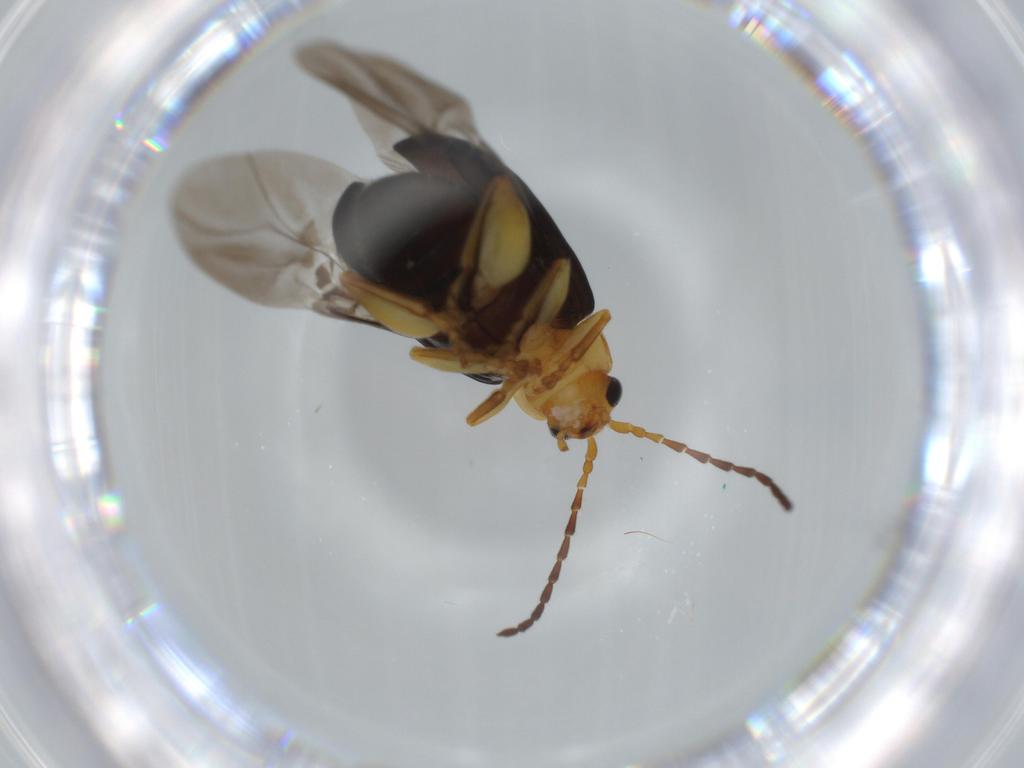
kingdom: Animalia
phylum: Arthropoda
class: Insecta
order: Coleoptera
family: Chrysomelidae
